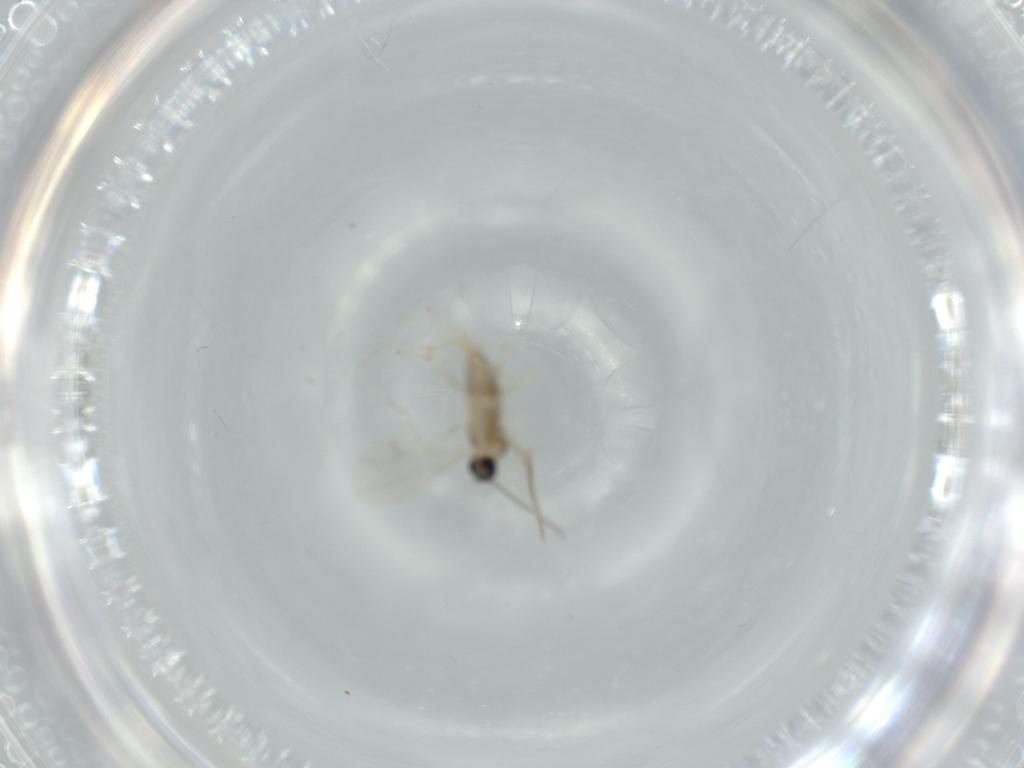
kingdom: Animalia
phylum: Arthropoda
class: Insecta
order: Diptera
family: Cecidomyiidae
